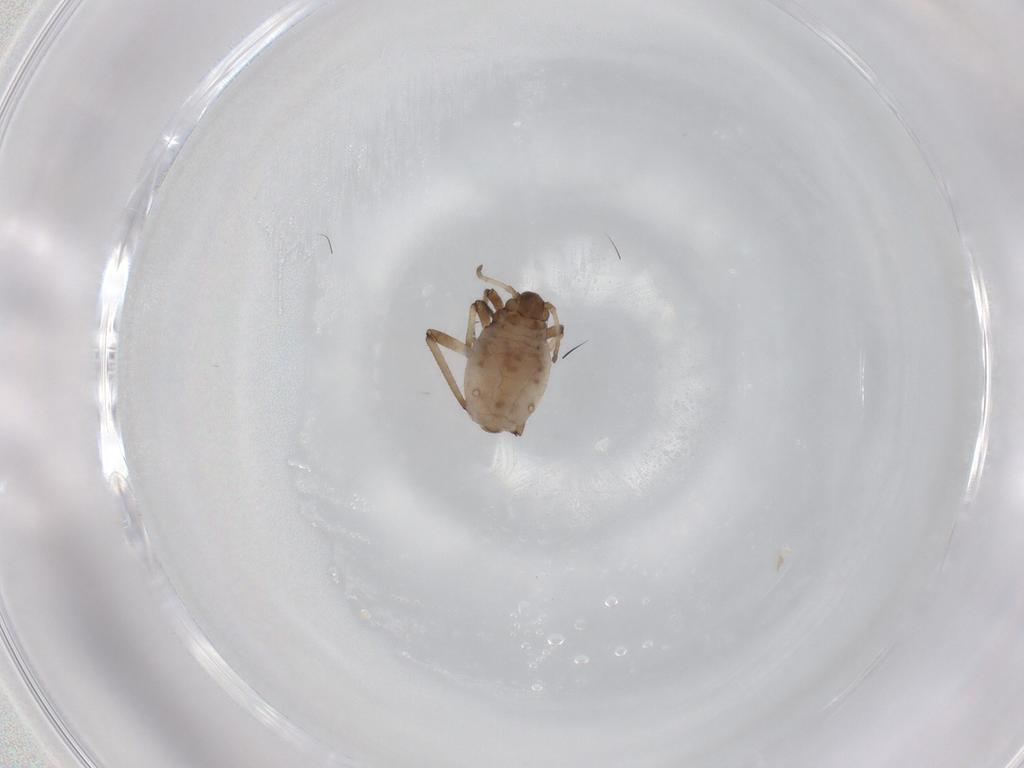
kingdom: Animalia
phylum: Arthropoda
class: Insecta
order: Hemiptera
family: Aphididae
